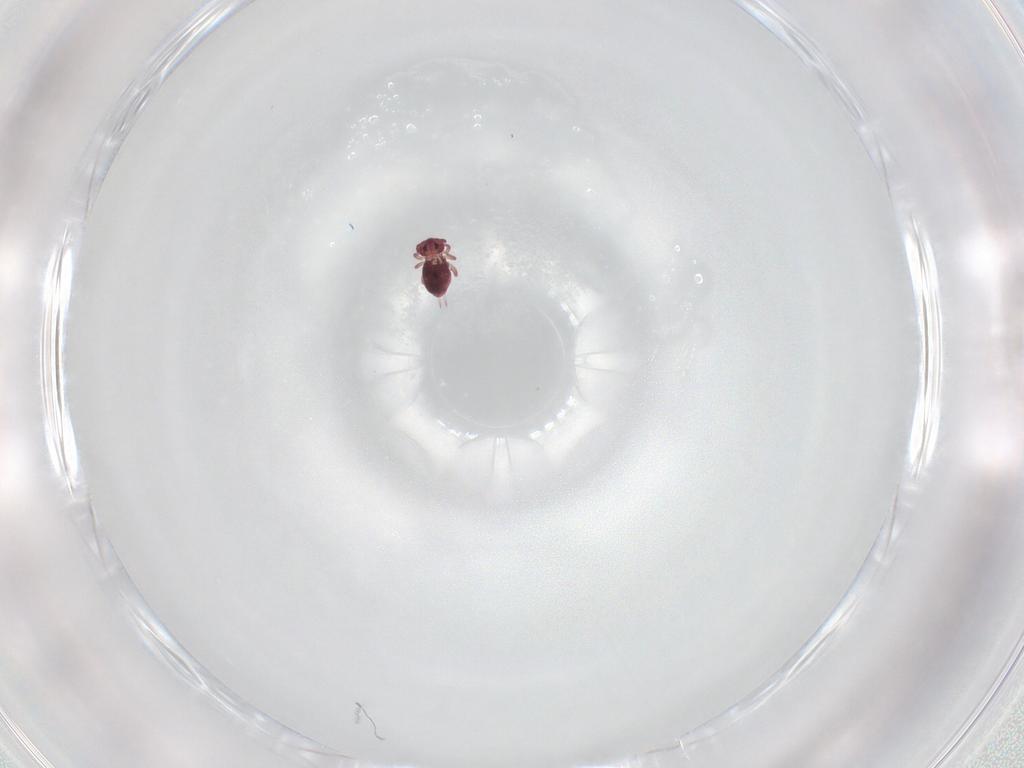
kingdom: Animalia
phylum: Arthropoda
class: Collembola
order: Symphypleona
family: Sminthurididae
